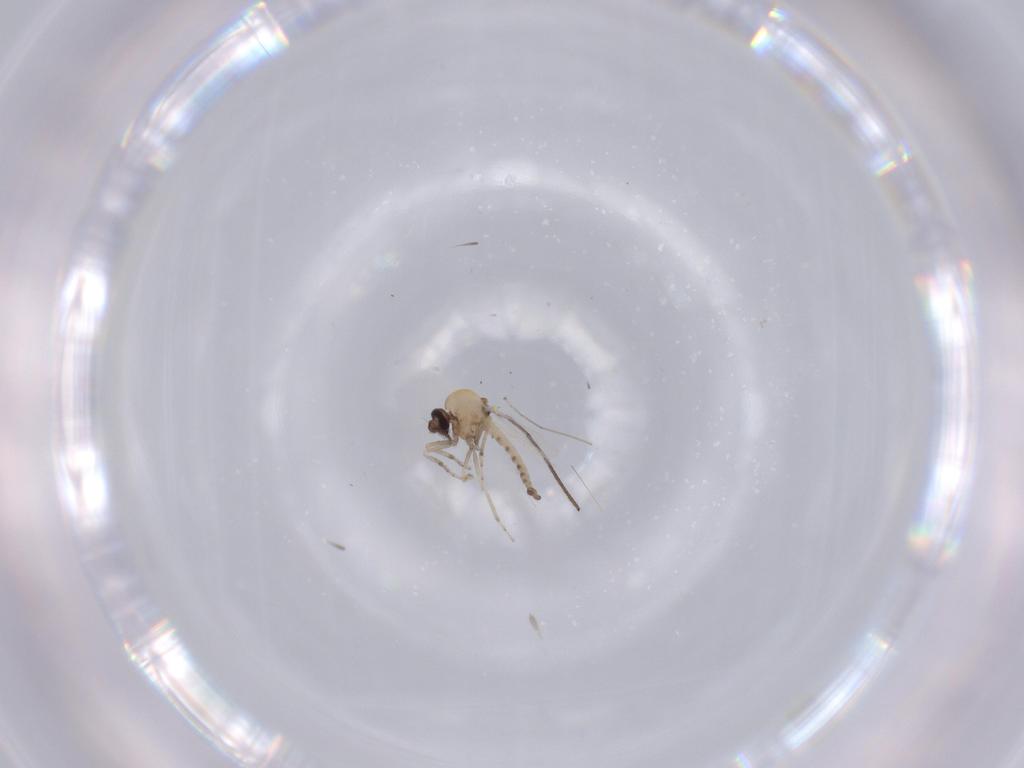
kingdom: Animalia
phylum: Arthropoda
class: Insecta
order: Diptera
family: Chironomidae
